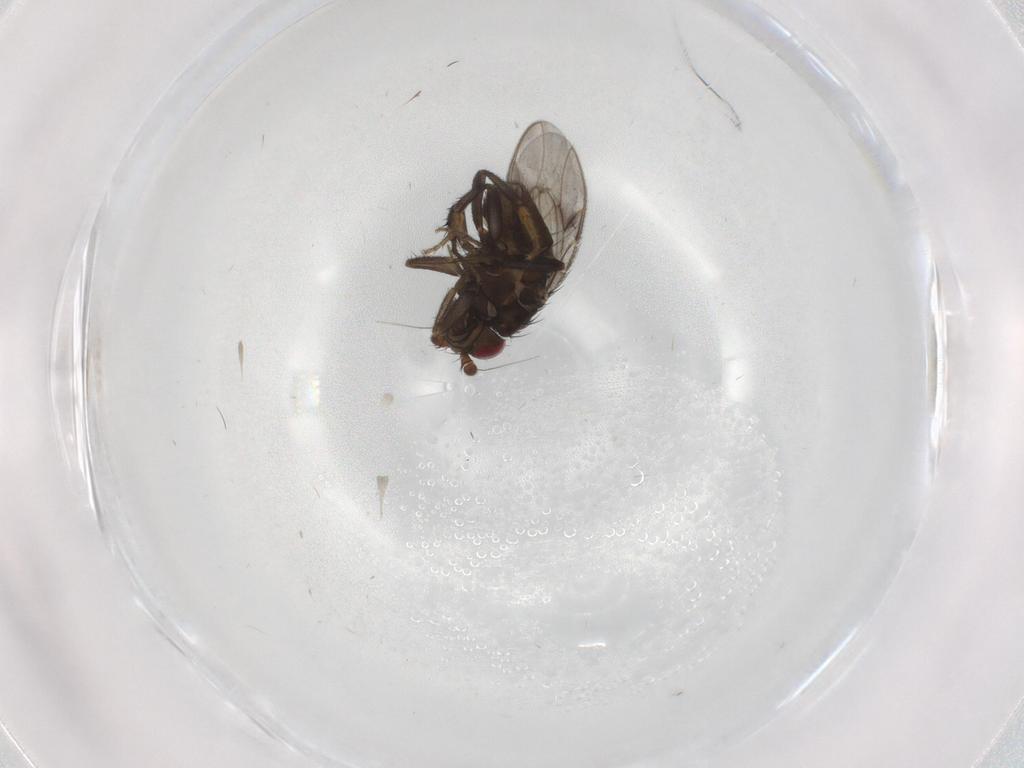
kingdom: Animalia
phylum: Arthropoda
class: Insecta
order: Diptera
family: Sphaeroceridae
